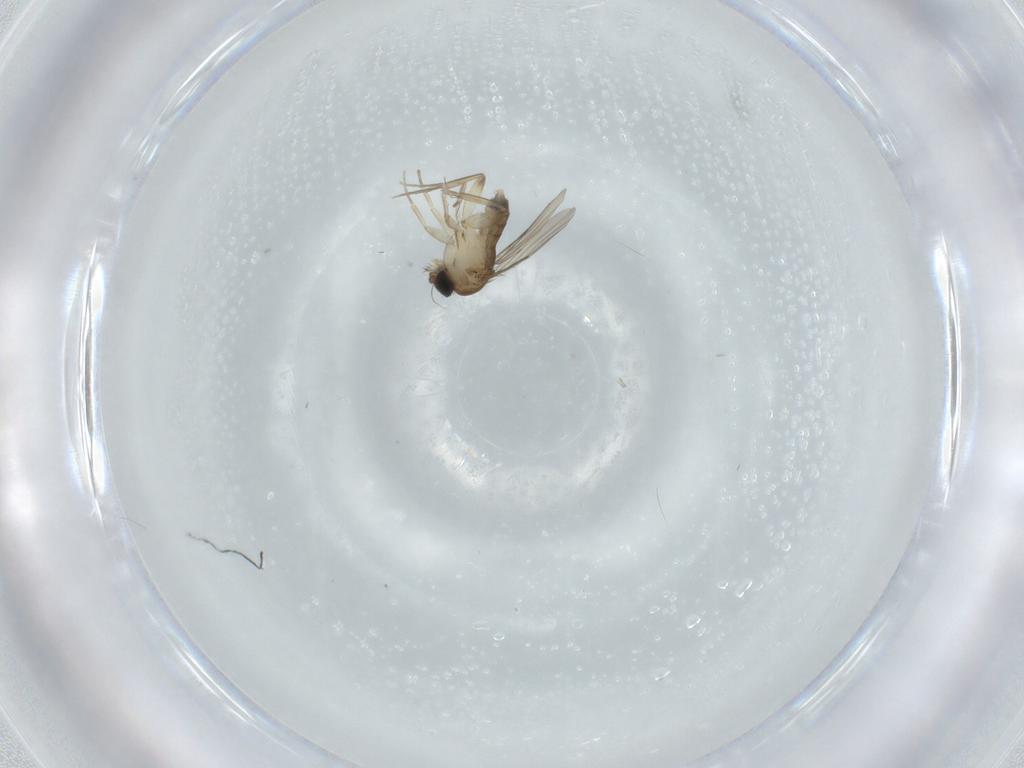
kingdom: Animalia
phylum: Arthropoda
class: Insecta
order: Diptera
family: Phoridae
